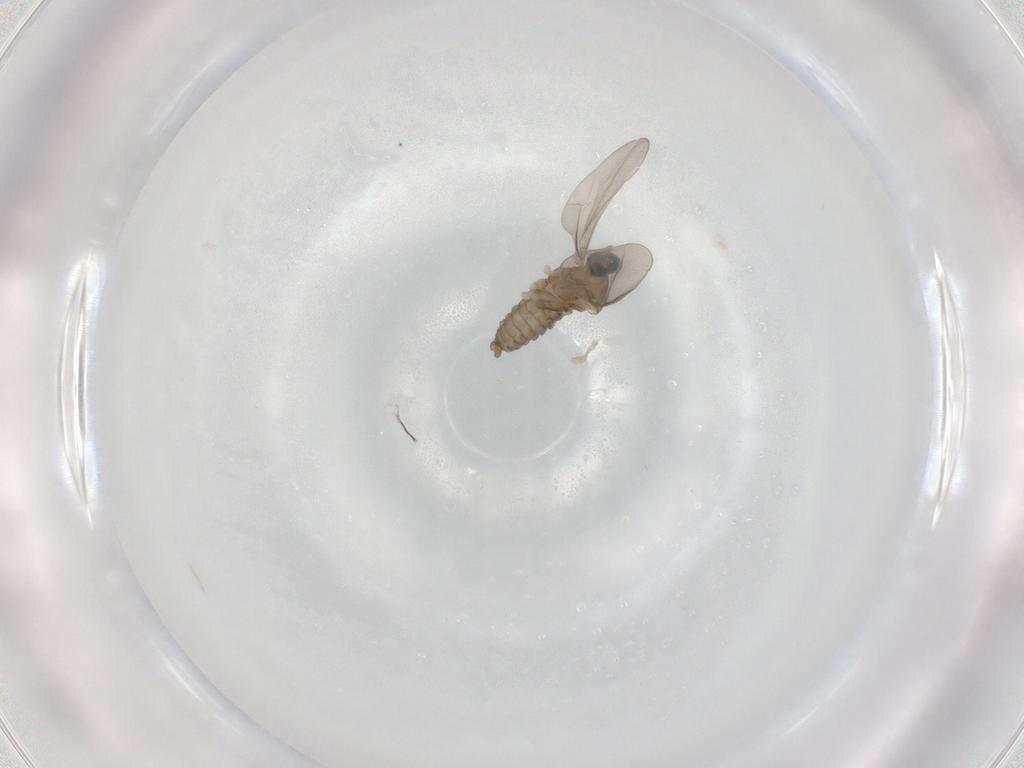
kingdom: Animalia
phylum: Arthropoda
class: Insecta
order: Diptera
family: Cecidomyiidae
